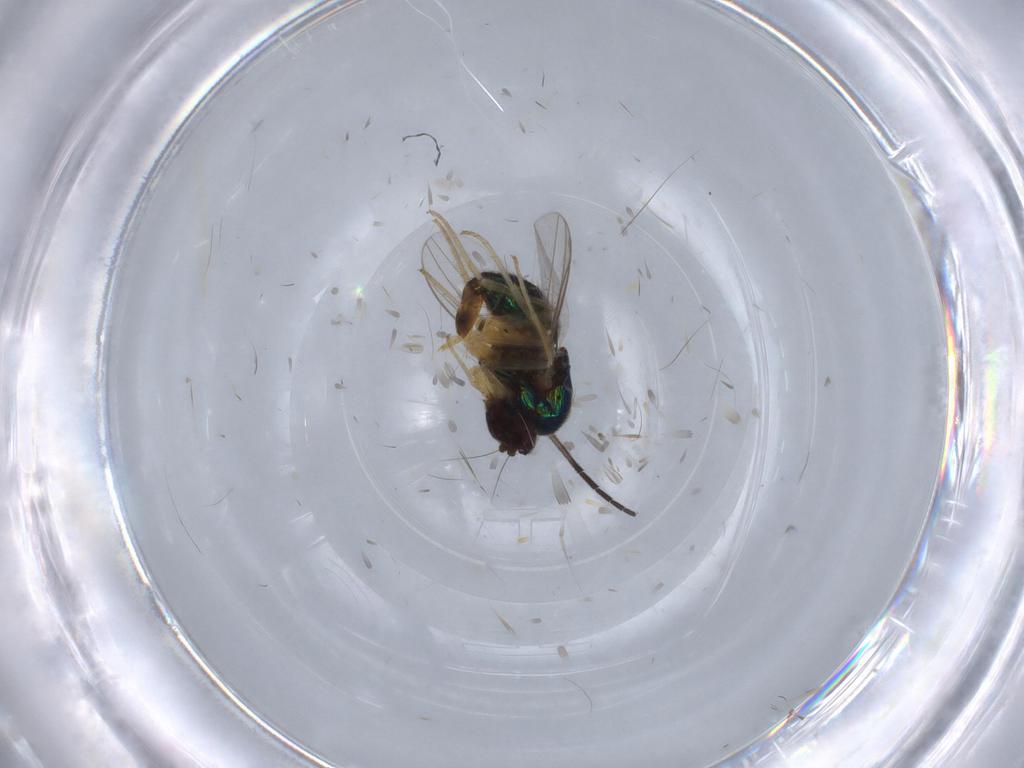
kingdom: Animalia
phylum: Arthropoda
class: Insecta
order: Diptera
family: Dolichopodidae
